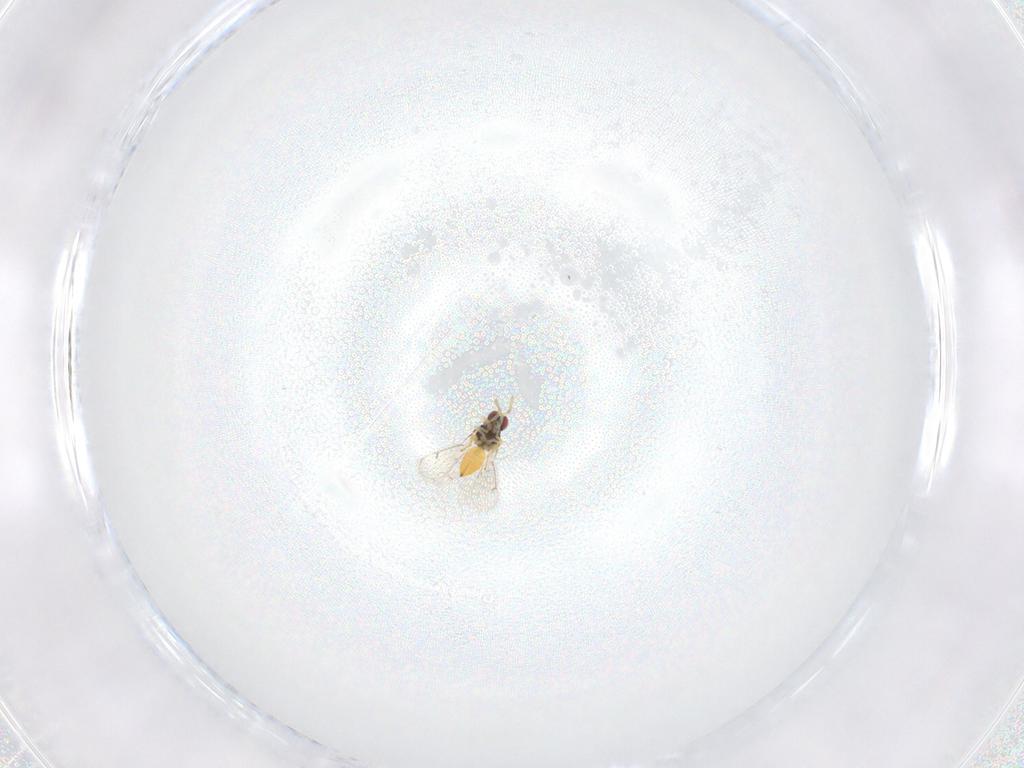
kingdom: Animalia
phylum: Arthropoda
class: Insecta
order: Hymenoptera
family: Eulophidae
